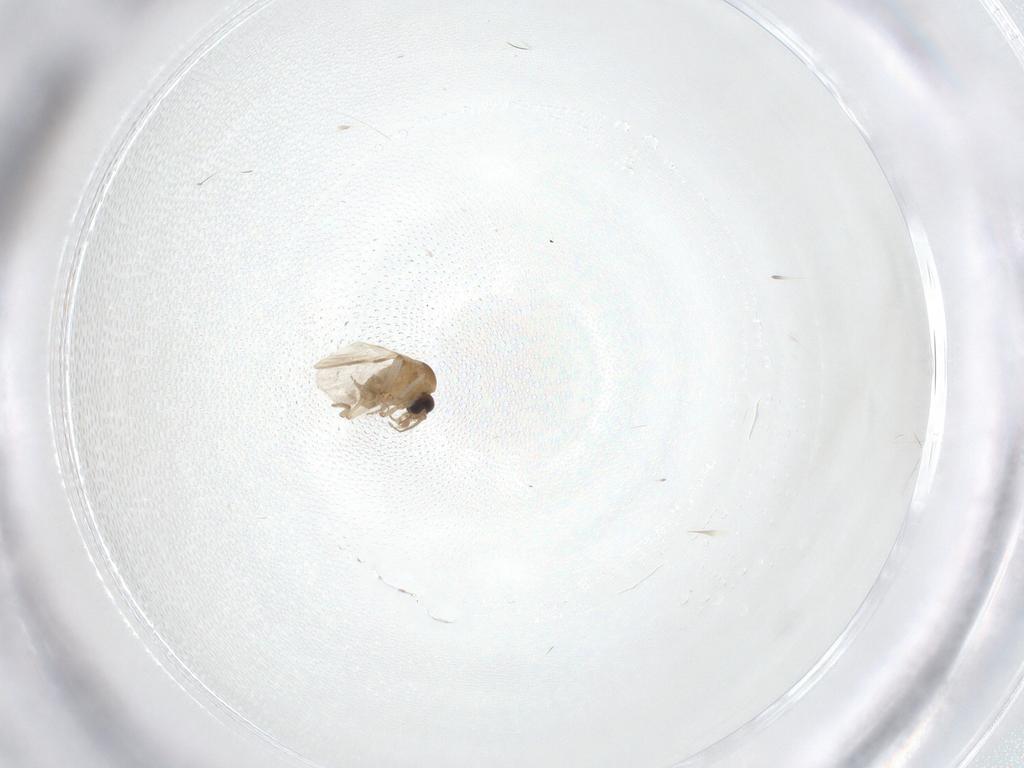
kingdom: Animalia
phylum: Arthropoda
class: Insecta
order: Diptera
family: Ceratopogonidae
